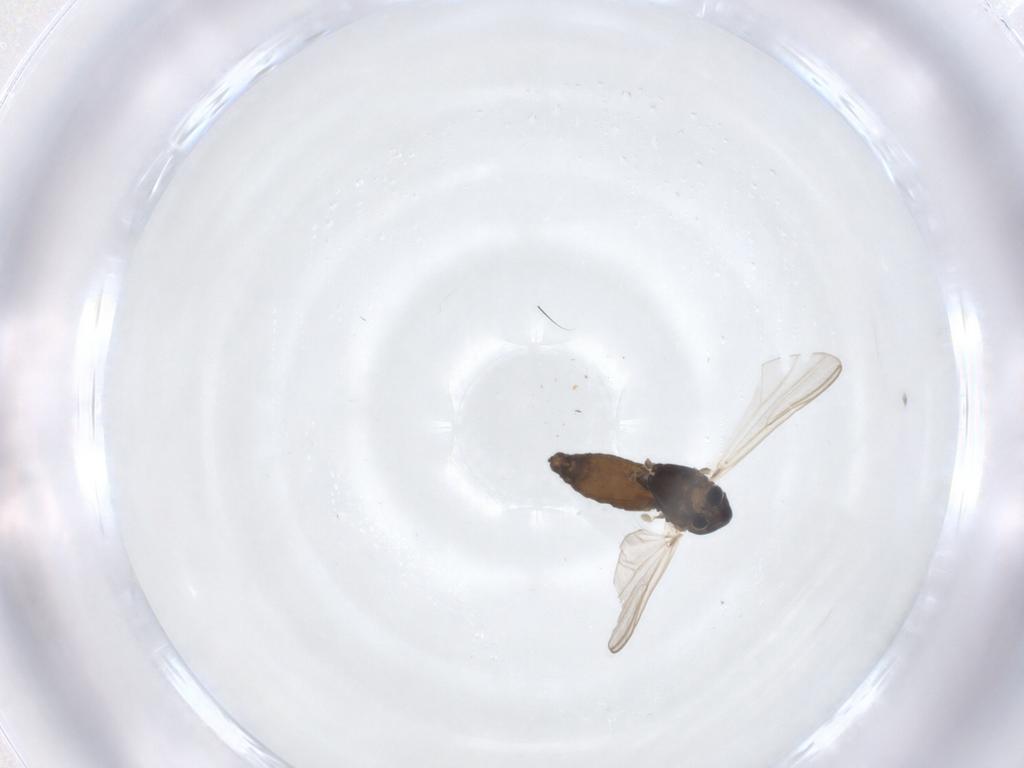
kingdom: Animalia
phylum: Arthropoda
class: Insecta
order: Diptera
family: Chironomidae
